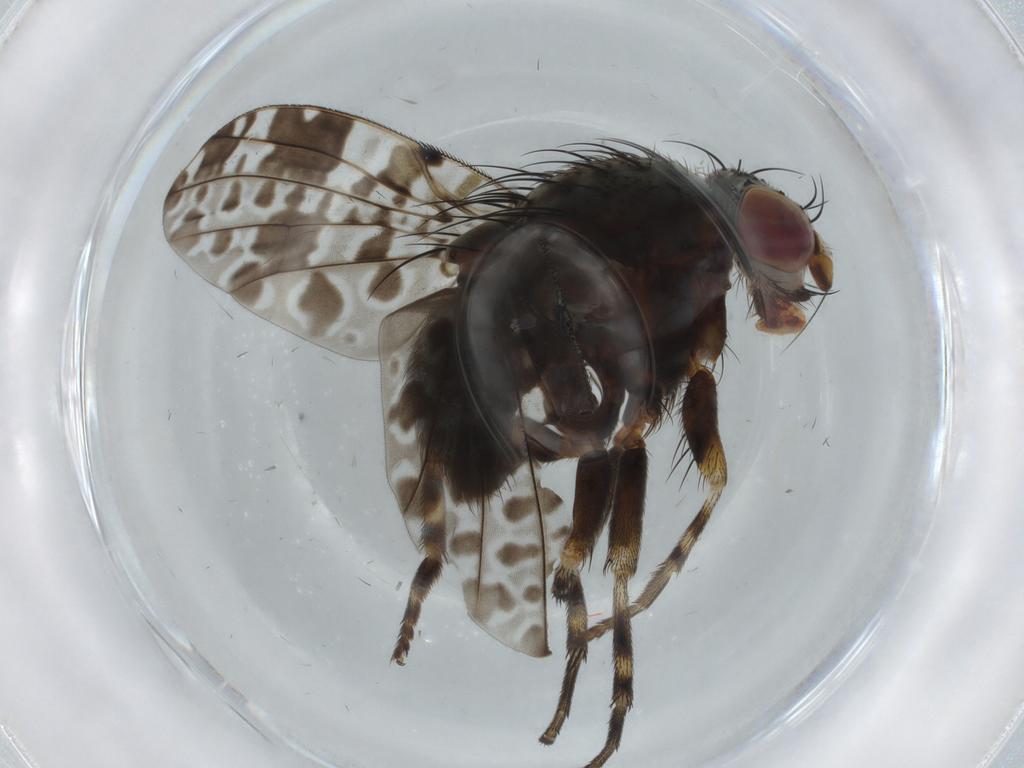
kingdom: Animalia
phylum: Arthropoda
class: Insecta
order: Diptera
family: Odiniidae
